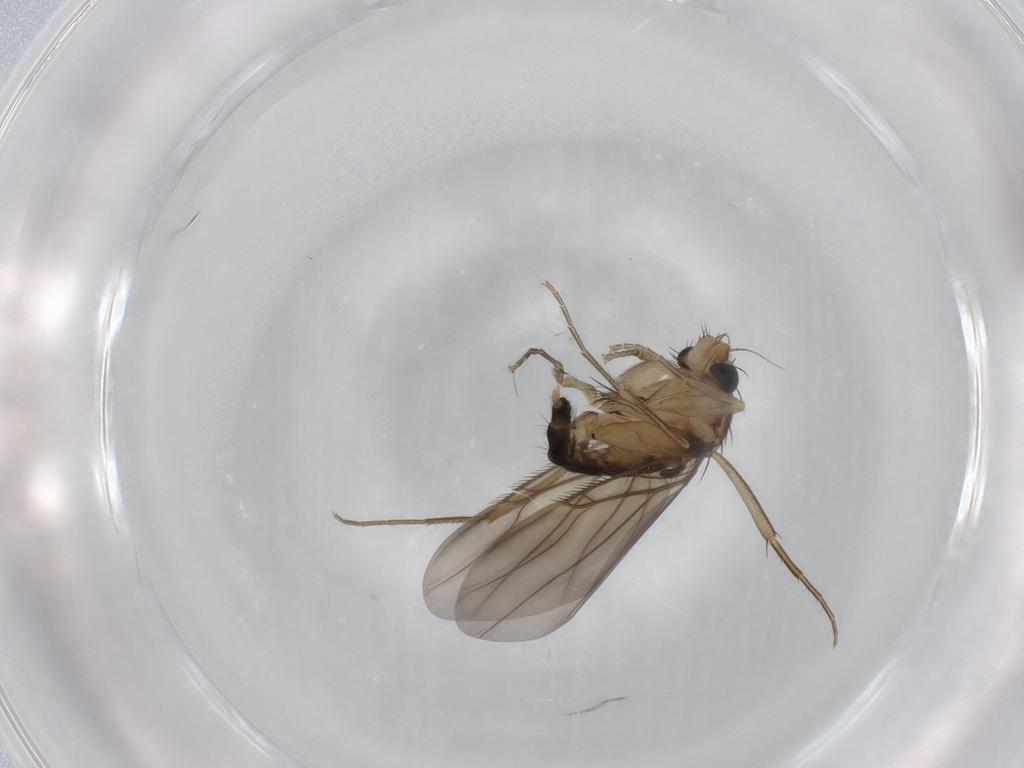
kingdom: Animalia
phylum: Arthropoda
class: Insecta
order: Diptera
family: Phoridae
